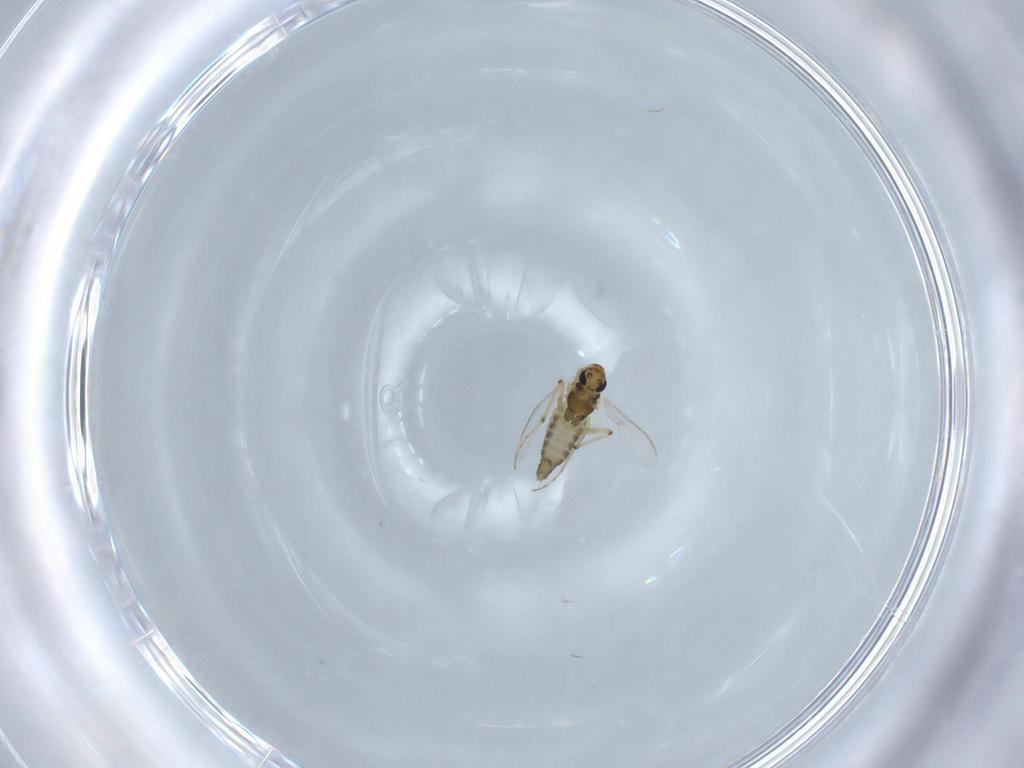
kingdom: Animalia
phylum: Arthropoda
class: Insecta
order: Diptera
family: Chironomidae
